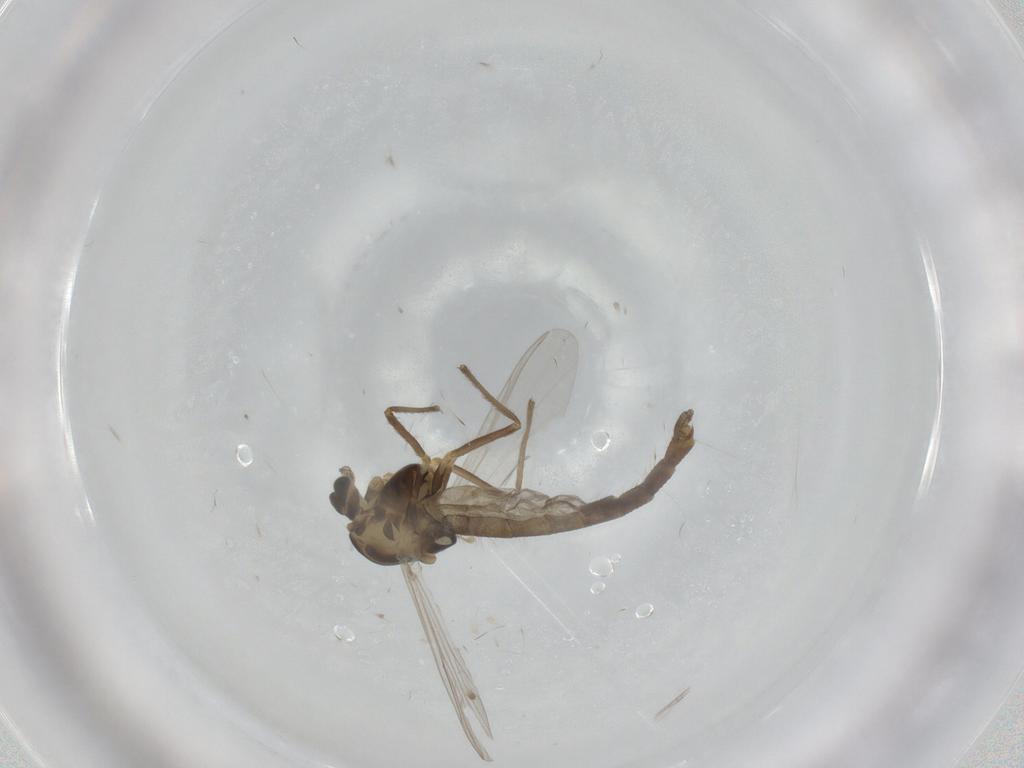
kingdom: Animalia
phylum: Arthropoda
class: Insecta
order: Diptera
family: Chironomidae
